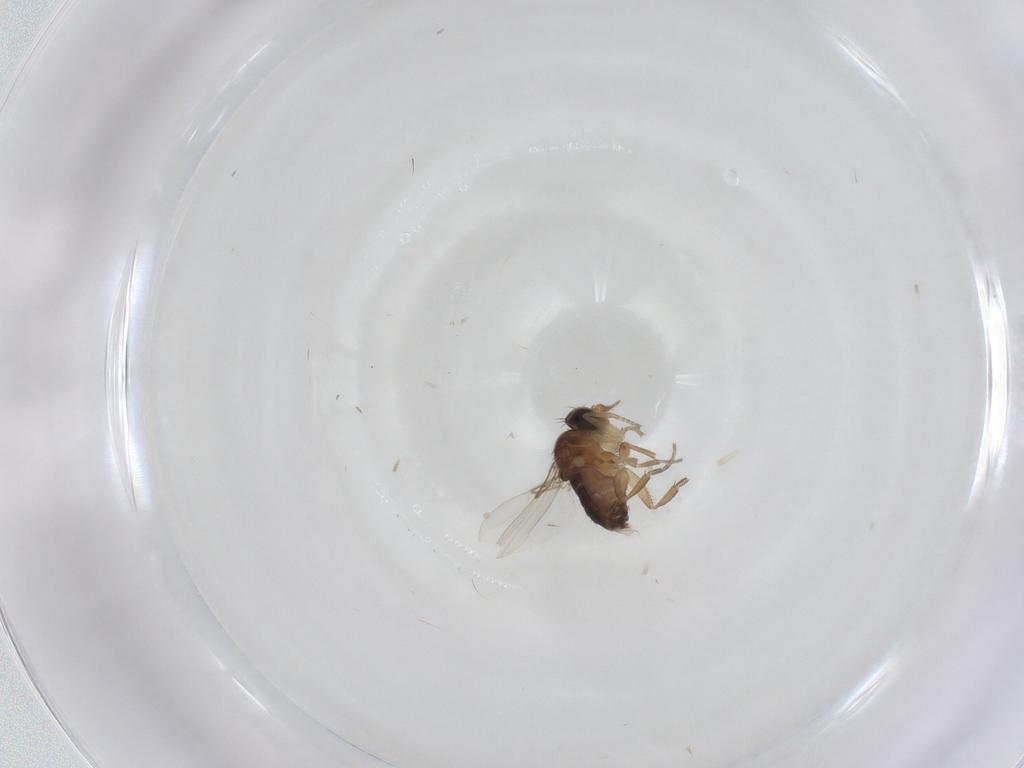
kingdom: Animalia
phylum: Arthropoda
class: Insecta
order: Diptera
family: Phoridae
